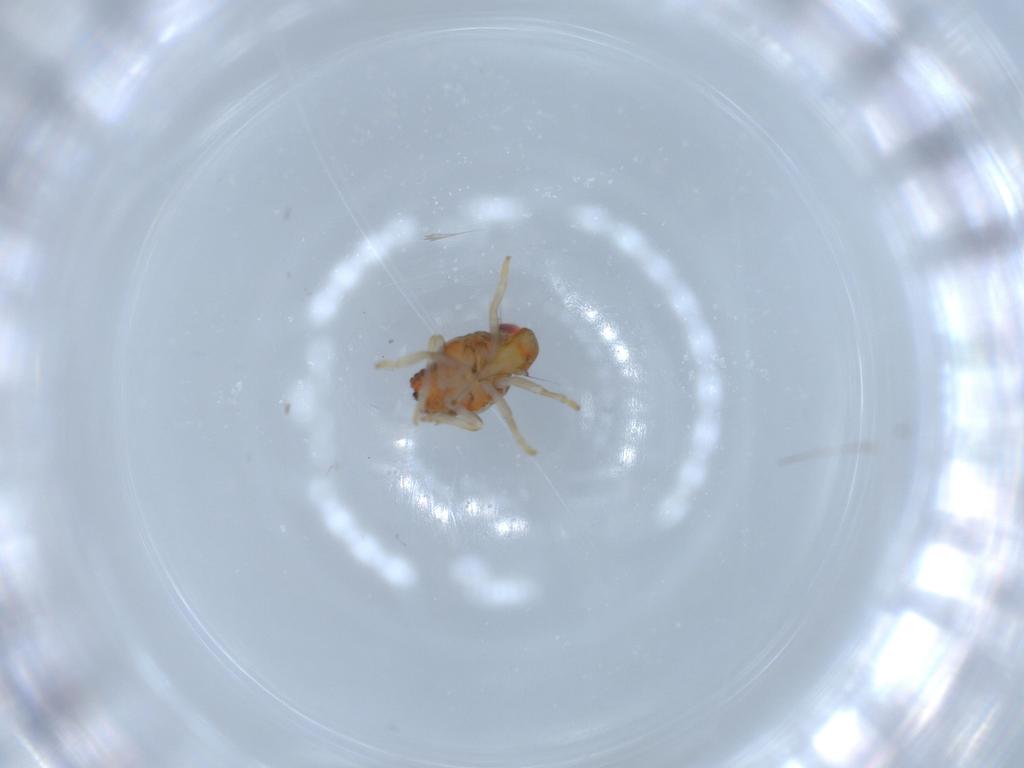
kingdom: Animalia
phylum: Arthropoda
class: Insecta
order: Hemiptera
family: Issidae
